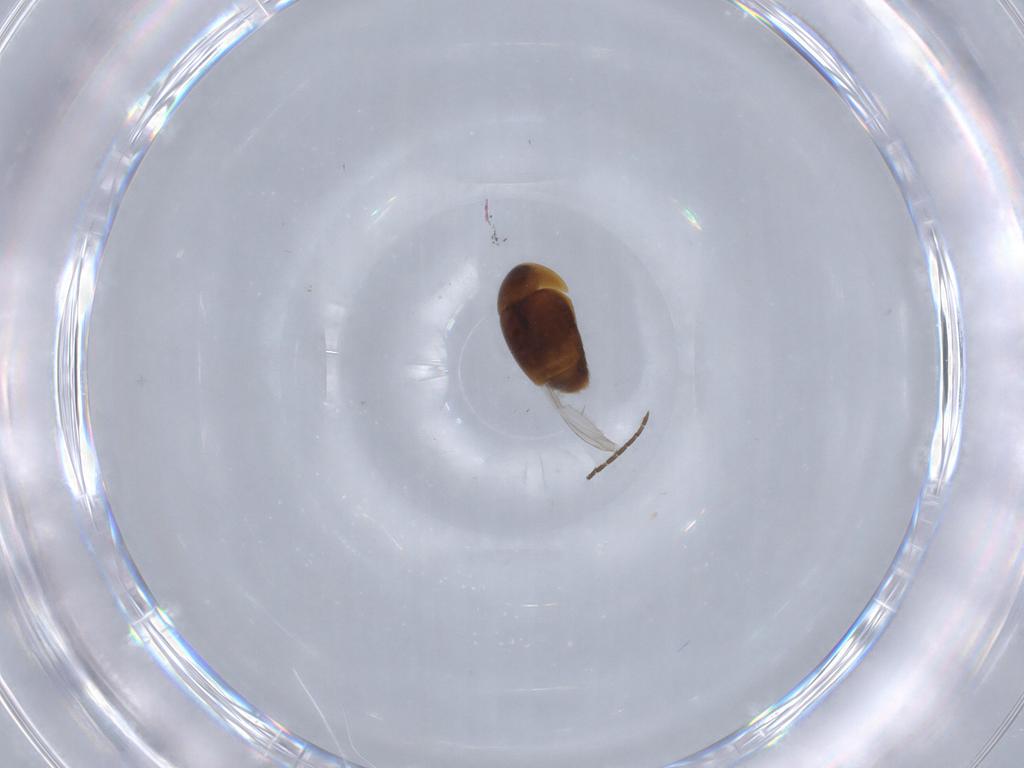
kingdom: Animalia
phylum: Arthropoda
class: Insecta
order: Coleoptera
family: Corylophidae
